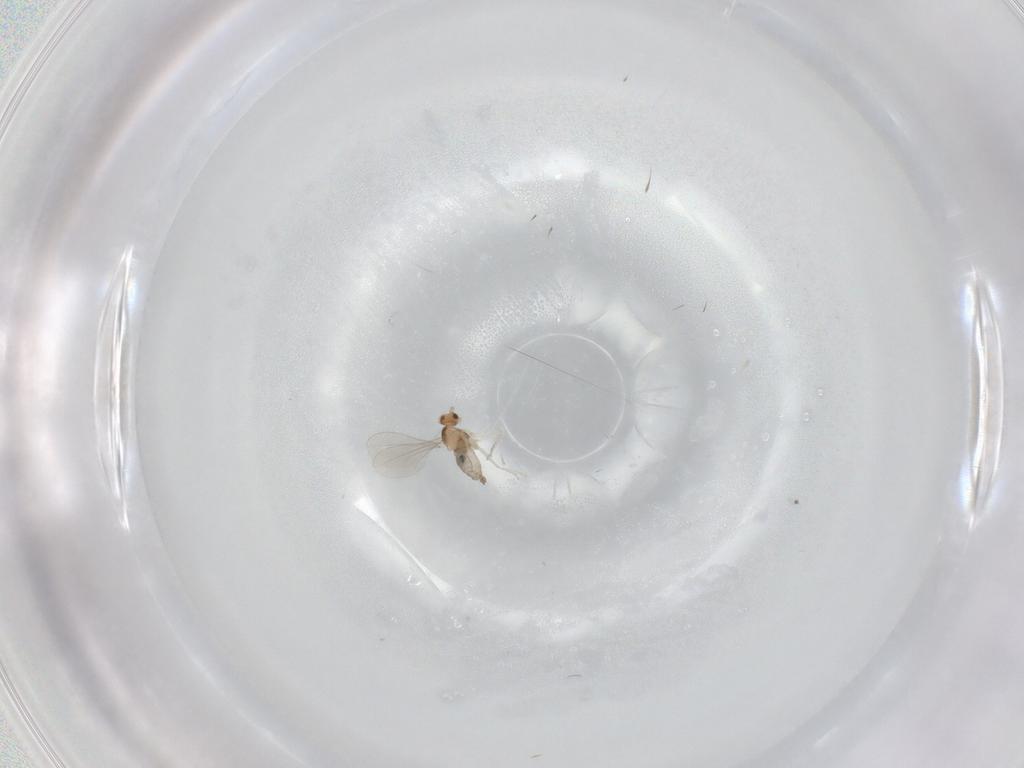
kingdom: Animalia
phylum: Arthropoda
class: Insecta
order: Diptera
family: Cecidomyiidae
